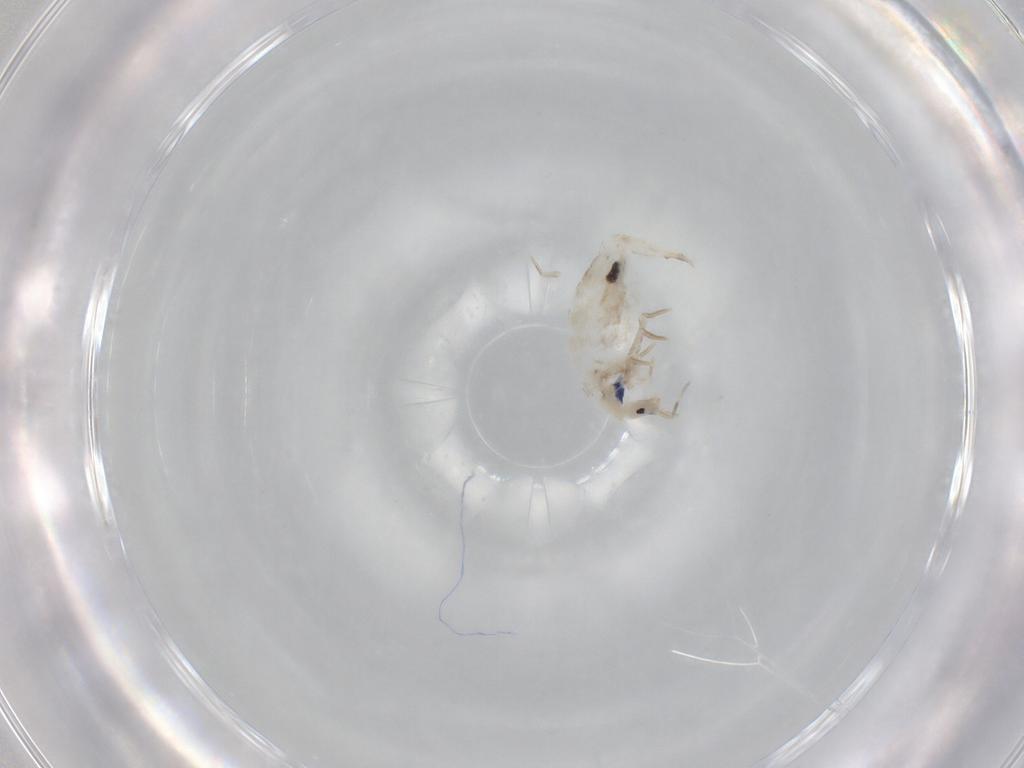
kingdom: Animalia
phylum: Arthropoda
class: Collembola
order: Entomobryomorpha
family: Entomobryidae
